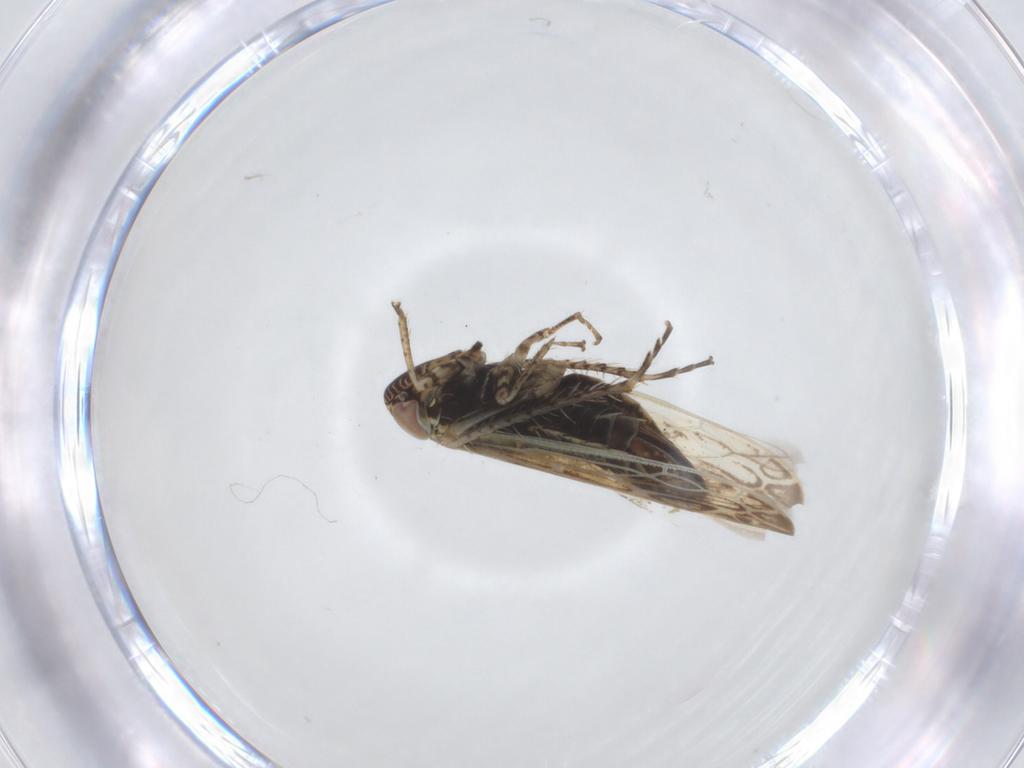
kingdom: Animalia
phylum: Arthropoda
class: Insecta
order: Hemiptera
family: Cicadellidae
